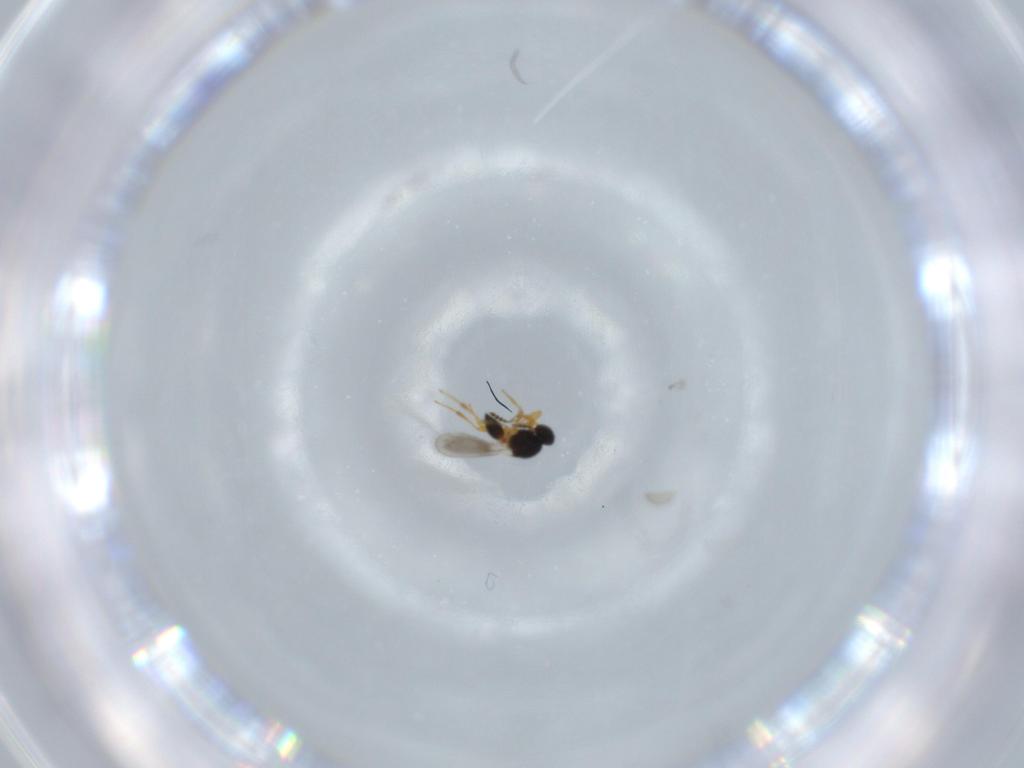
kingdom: Animalia
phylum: Arthropoda
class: Insecta
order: Hymenoptera
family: Platygastridae
